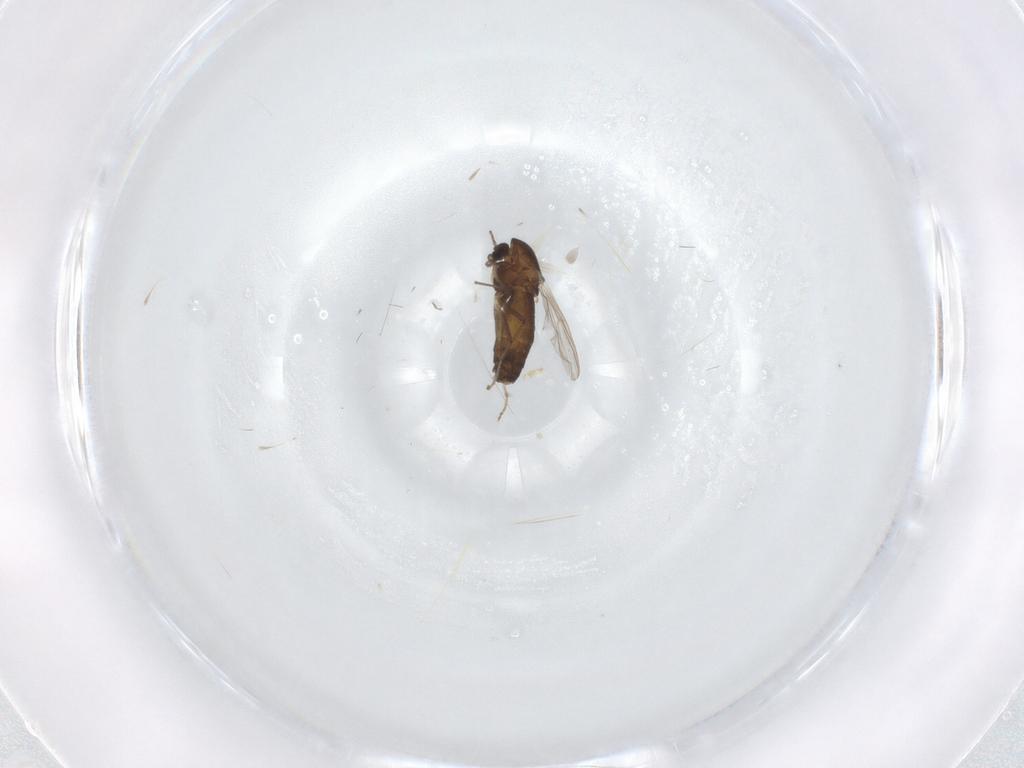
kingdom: Animalia
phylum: Arthropoda
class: Insecta
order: Diptera
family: Chironomidae
